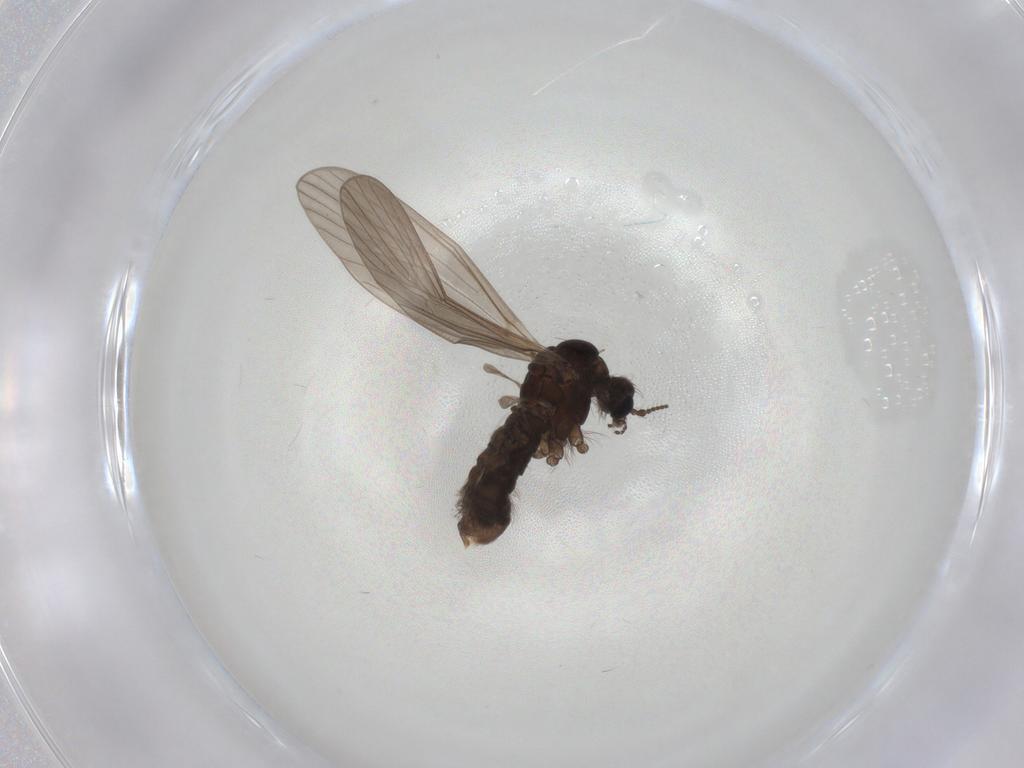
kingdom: Animalia
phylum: Arthropoda
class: Insecta
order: Diptera
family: Limoniidae
